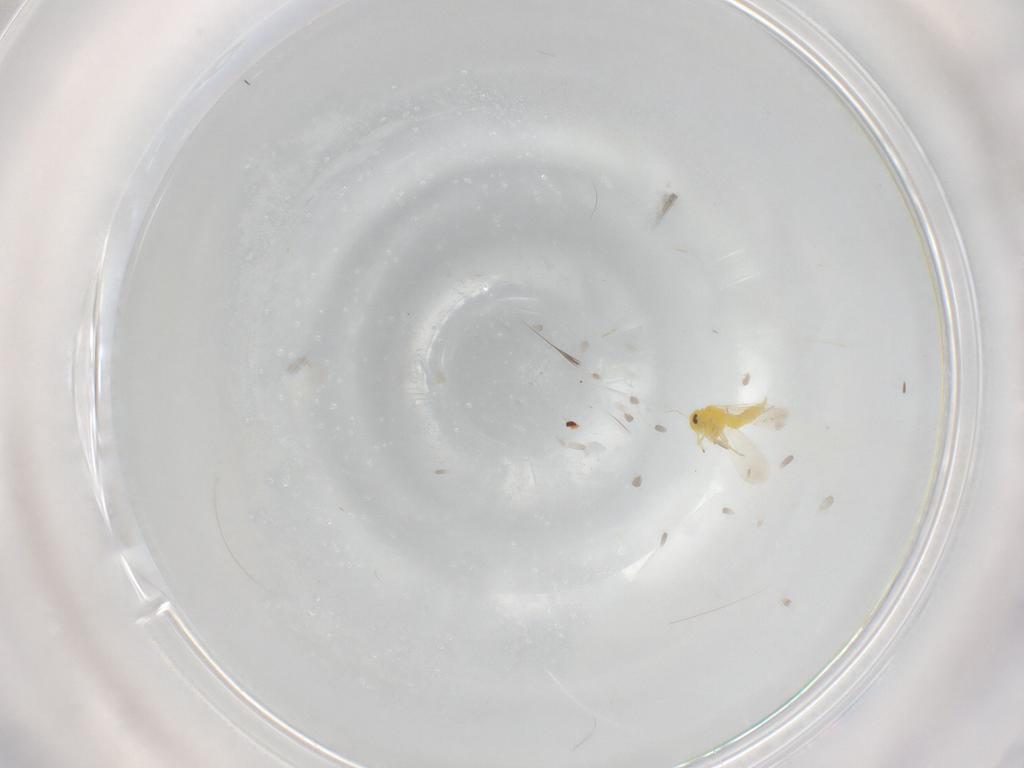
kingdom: Animalia
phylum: Arthropoda
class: Insecta
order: Hemiptera
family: Aleyrodidae
